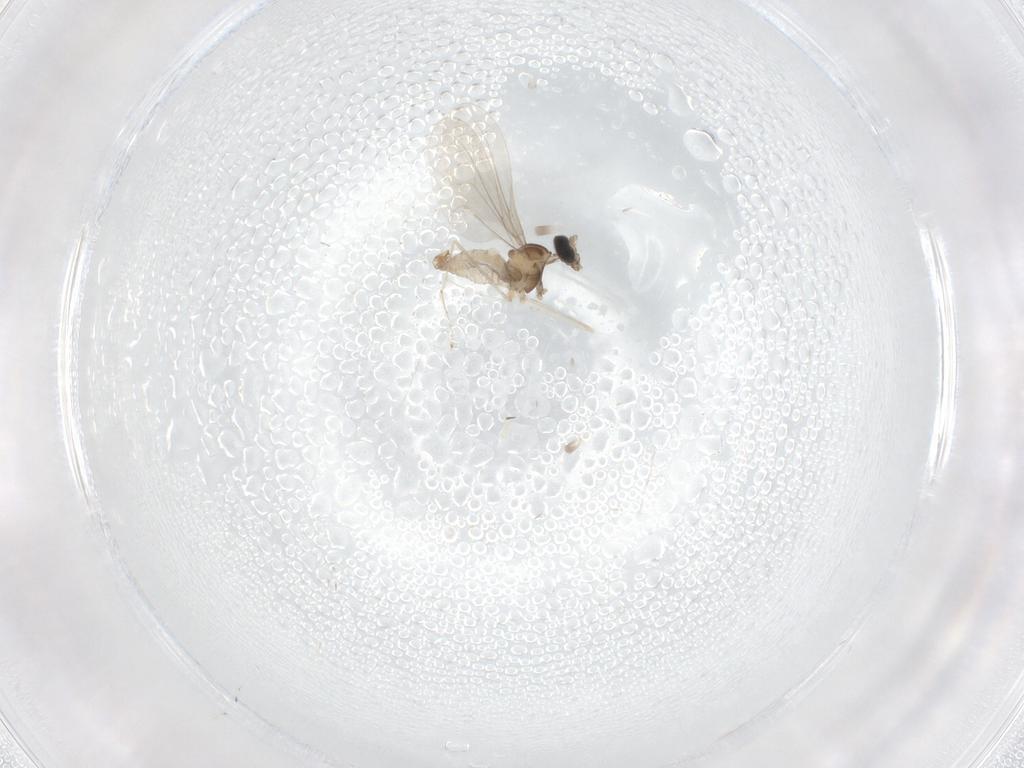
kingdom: Animalia
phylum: Arthropoda
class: Insecta
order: Diptera
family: Cecidomyiidae
